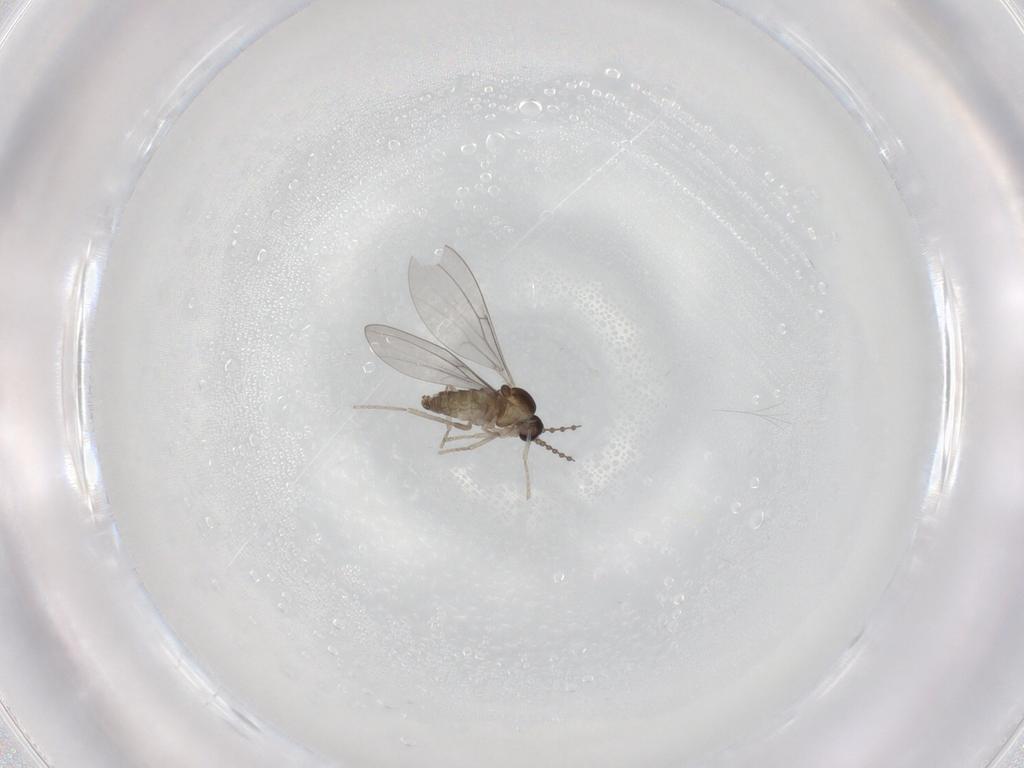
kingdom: Animalia
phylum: Arthropoda
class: Insecta
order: Diptera
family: Cecidomyiidae
